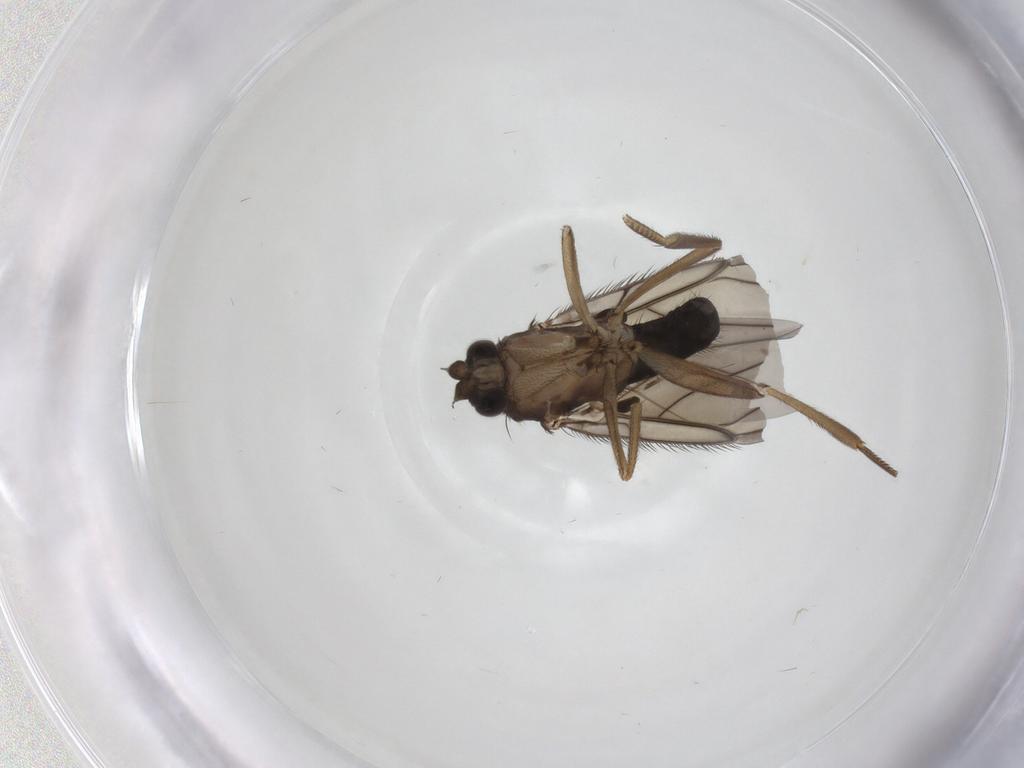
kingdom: Animalia
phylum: Arthropoda
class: Insecta
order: Diptera
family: Phoridae
